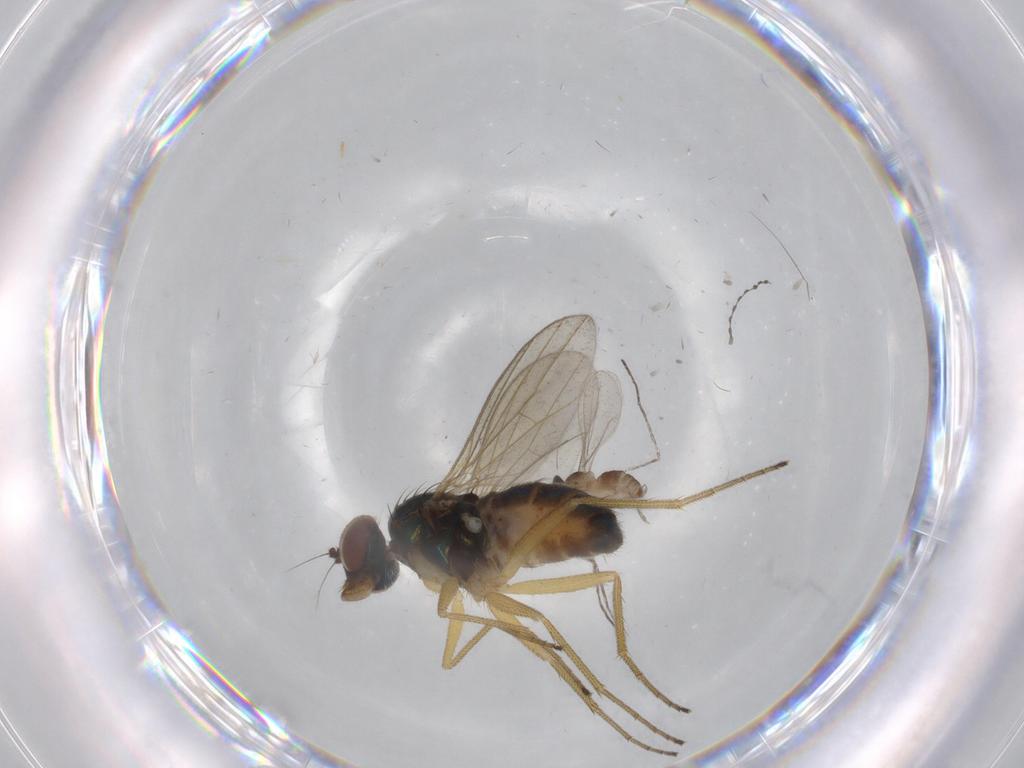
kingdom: Animalia
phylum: Arthropoda
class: Insecta
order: Diptera
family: Dolichopodidae
